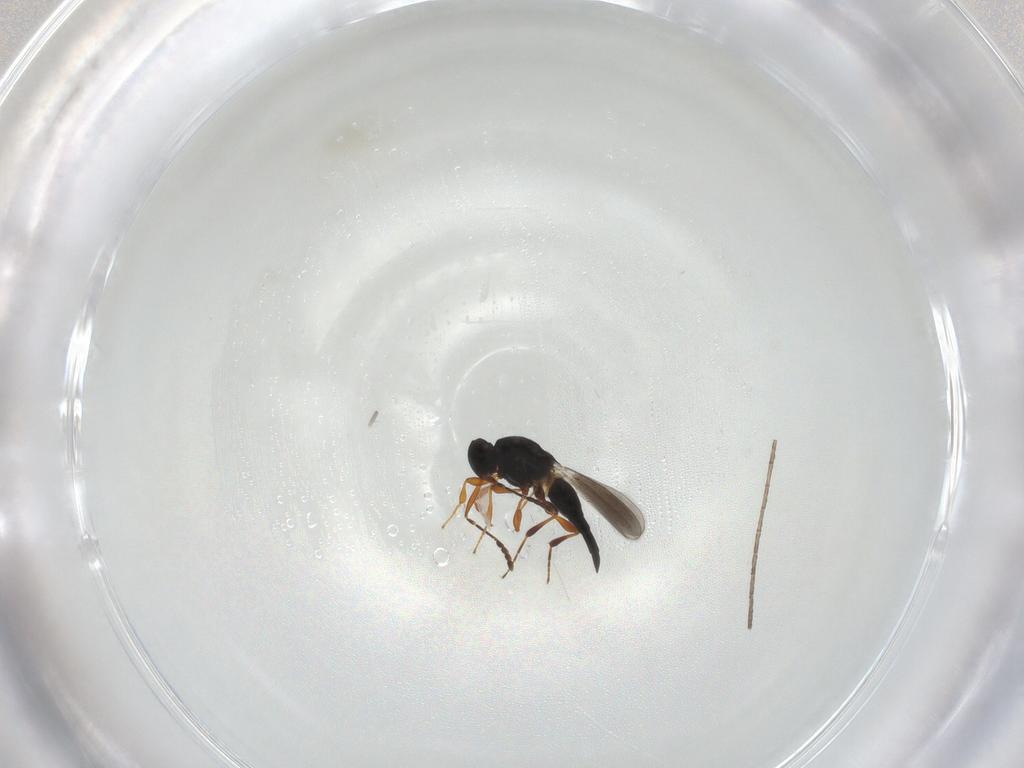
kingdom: Animalia
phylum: Arthropoda
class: Insecta
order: Hymenoptera
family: Platygastridae
